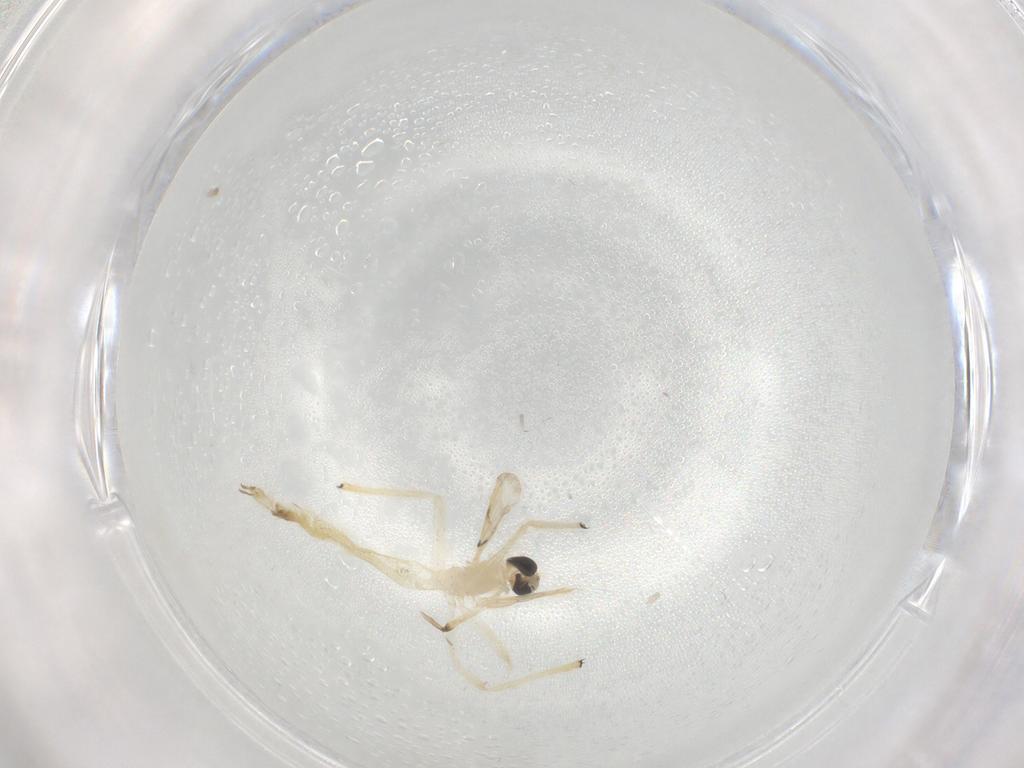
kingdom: Animalia
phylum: Arthropoda
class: Insecta
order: Diptera
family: Chironomidae
